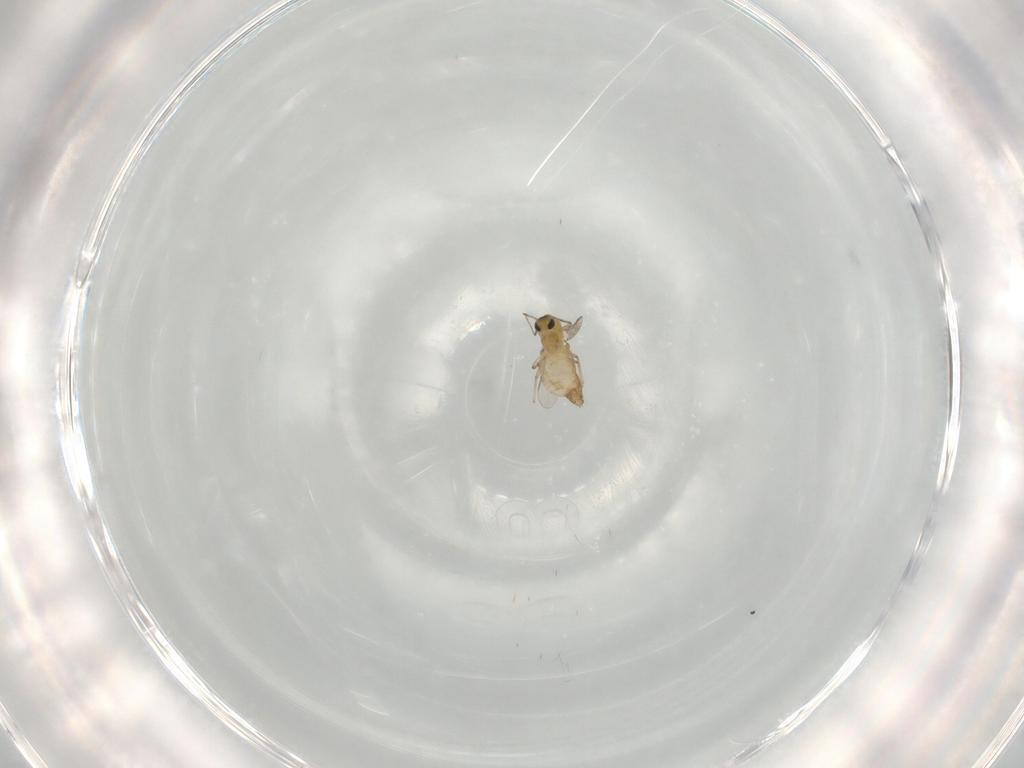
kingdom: Animalia
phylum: Arthropoda
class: Insecta
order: Diptera
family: Chironomidae
